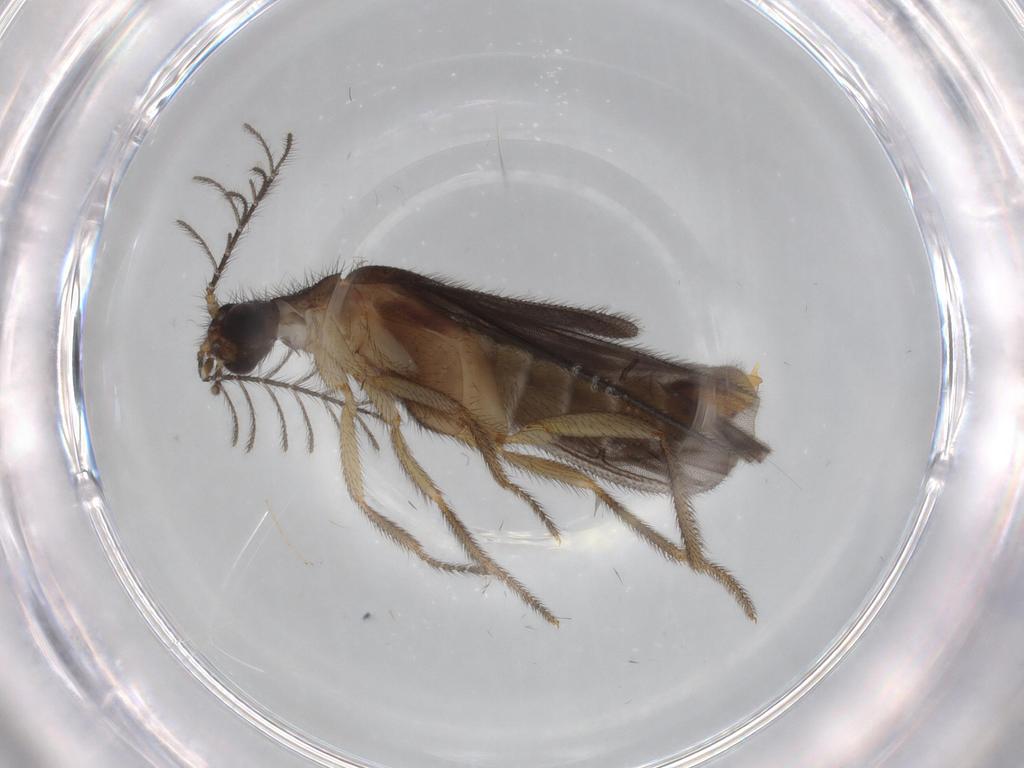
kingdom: Animalia
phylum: Arthropoda
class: Insecta
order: Coleoptera
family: Phengodidae
